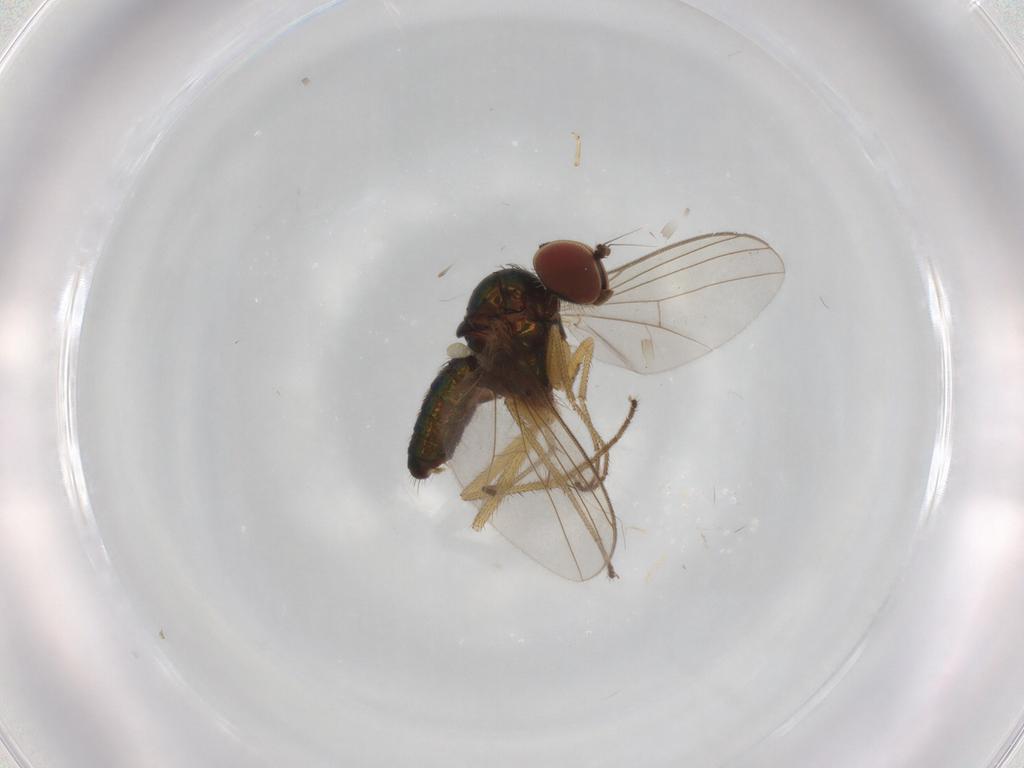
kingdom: Animalia
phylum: Arthropoda
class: Insecta
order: Diptera
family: Dolichopodidae
